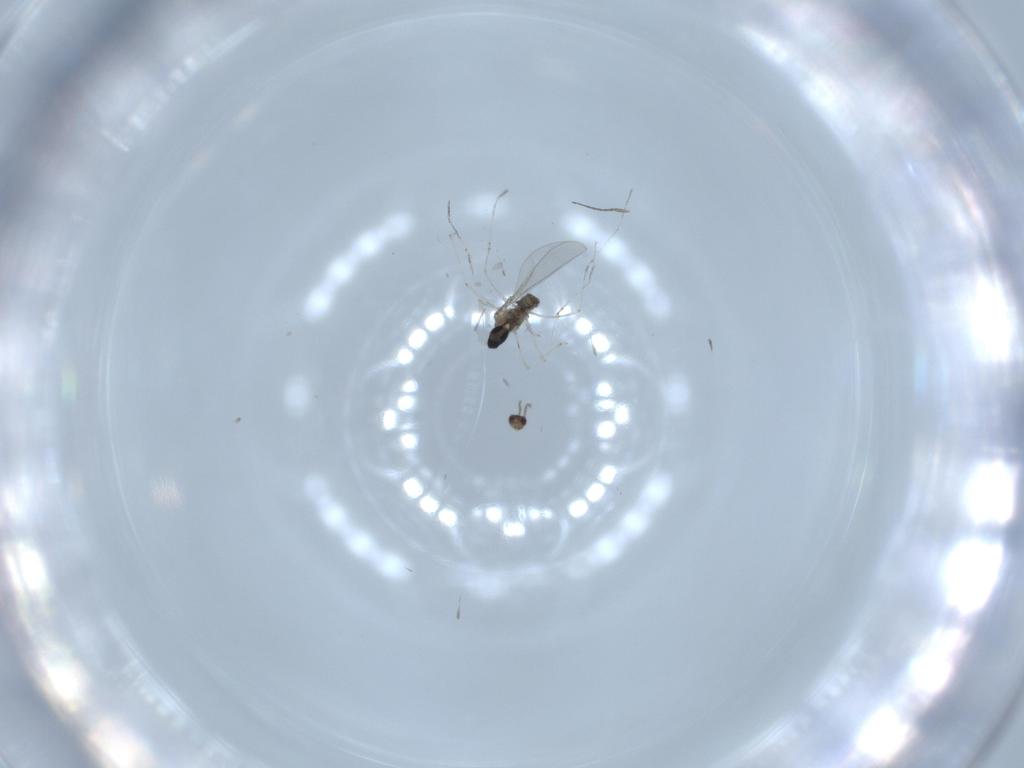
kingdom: Animalia
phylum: Arthropoda
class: Insecta
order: Diptera
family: Cecidomyiidae
